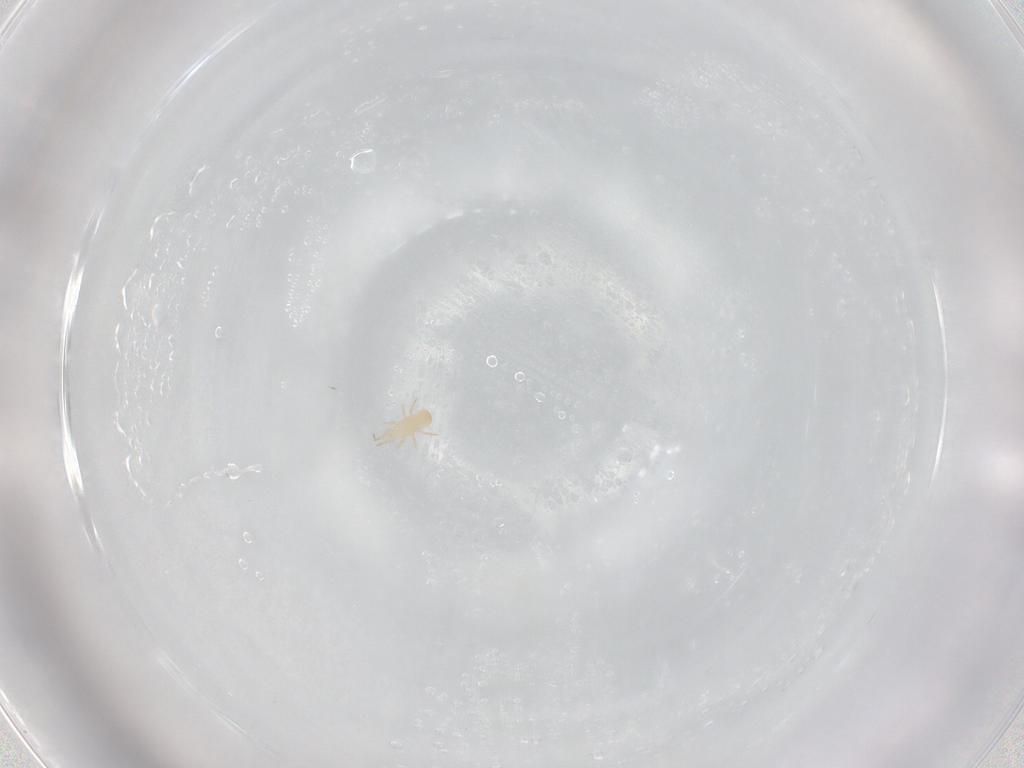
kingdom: Animalia
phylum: Arthropoda
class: Arachnida
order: Mesostigmata
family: Phytoseiidae
